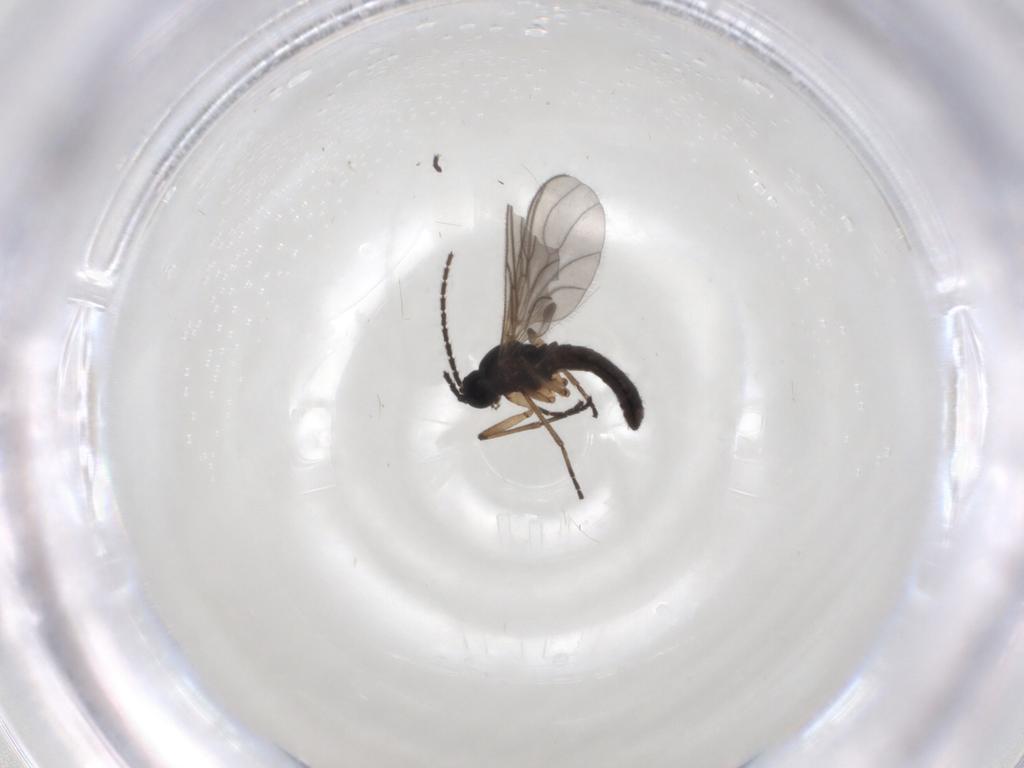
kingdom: Animalia
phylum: Arthropoda
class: Insecta
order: Diptera
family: Sciaridae
